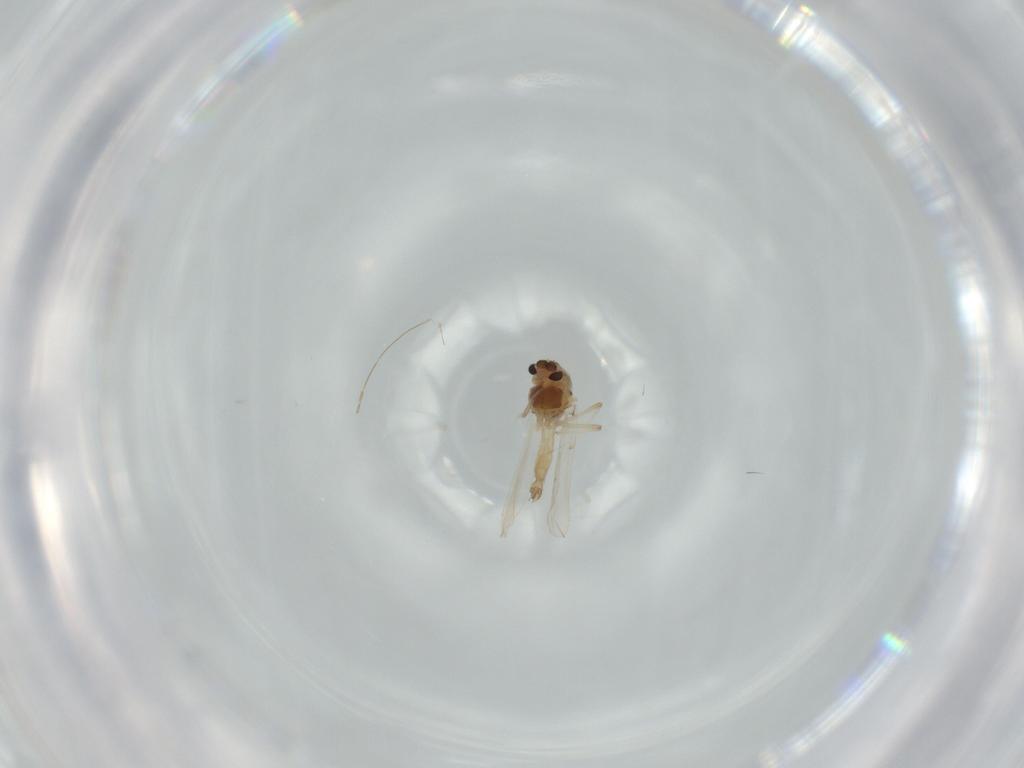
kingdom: Animalia
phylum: Arthropoda
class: Insecta
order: Diptera
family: Chironomidae
